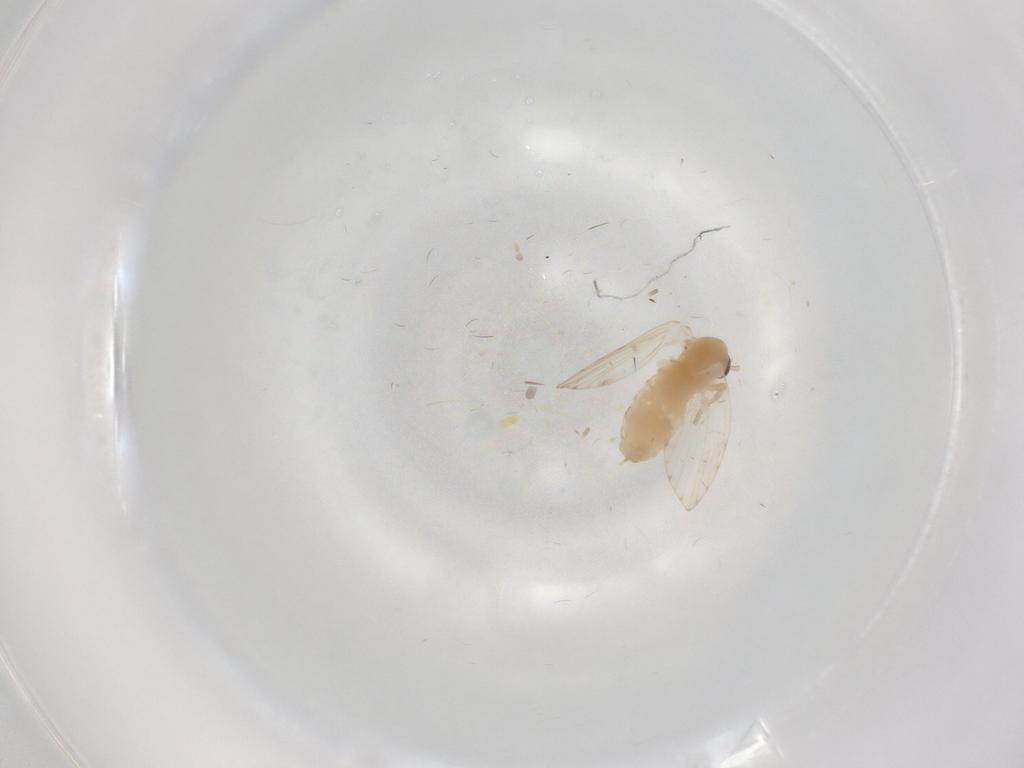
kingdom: Animalia
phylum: Arthropoda
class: Insecta
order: Diptera
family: Psychodidae
